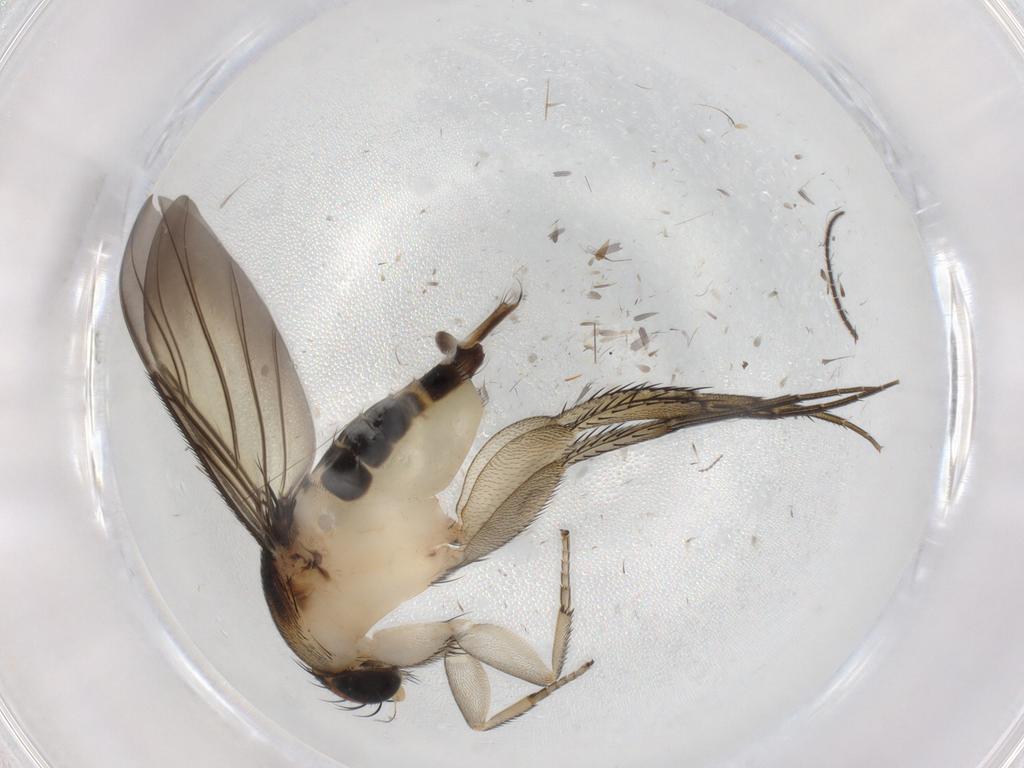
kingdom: Animalia
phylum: Arthropoda
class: Insecta
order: Diptera
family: Phoridae
